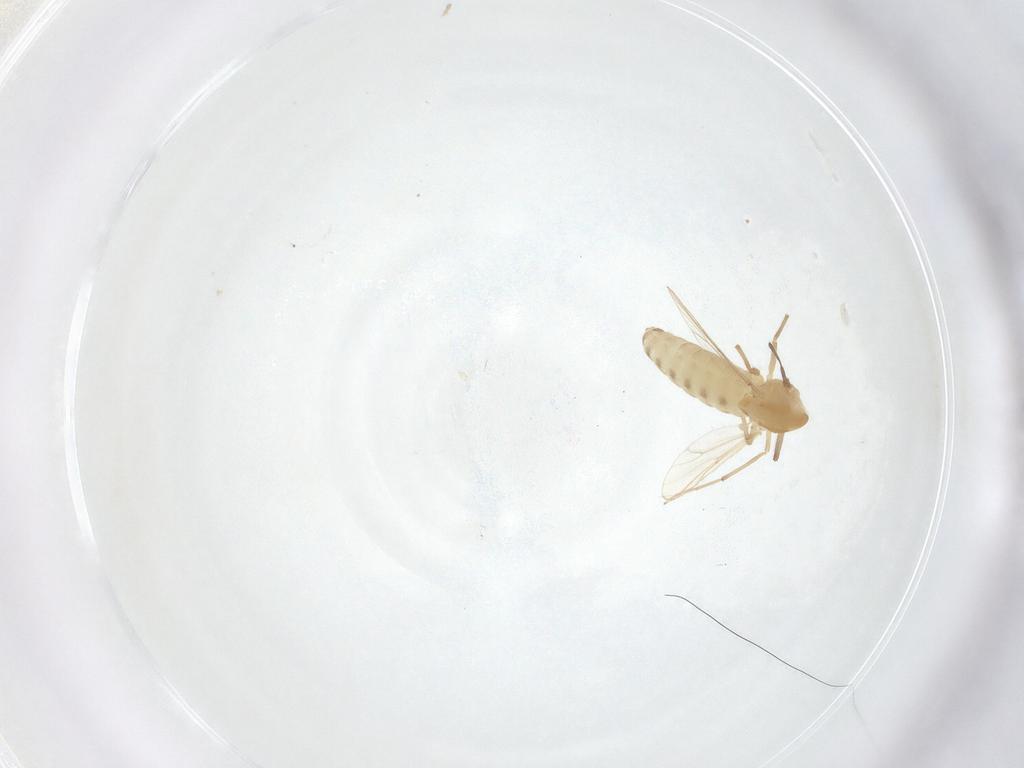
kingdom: Animalia
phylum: Arthropoda
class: Insecta
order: Diptera
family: Chironomidae
